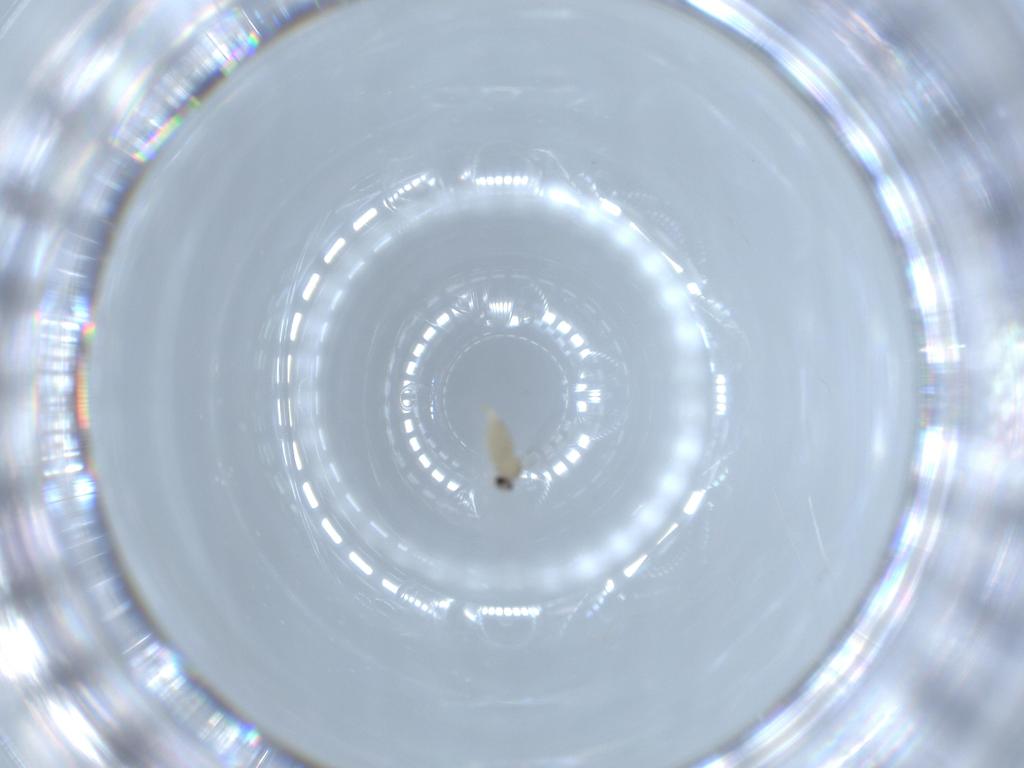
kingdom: Animalia
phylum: Arthropoda
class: Insecta
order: Diptera
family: Cecidomyiidae
